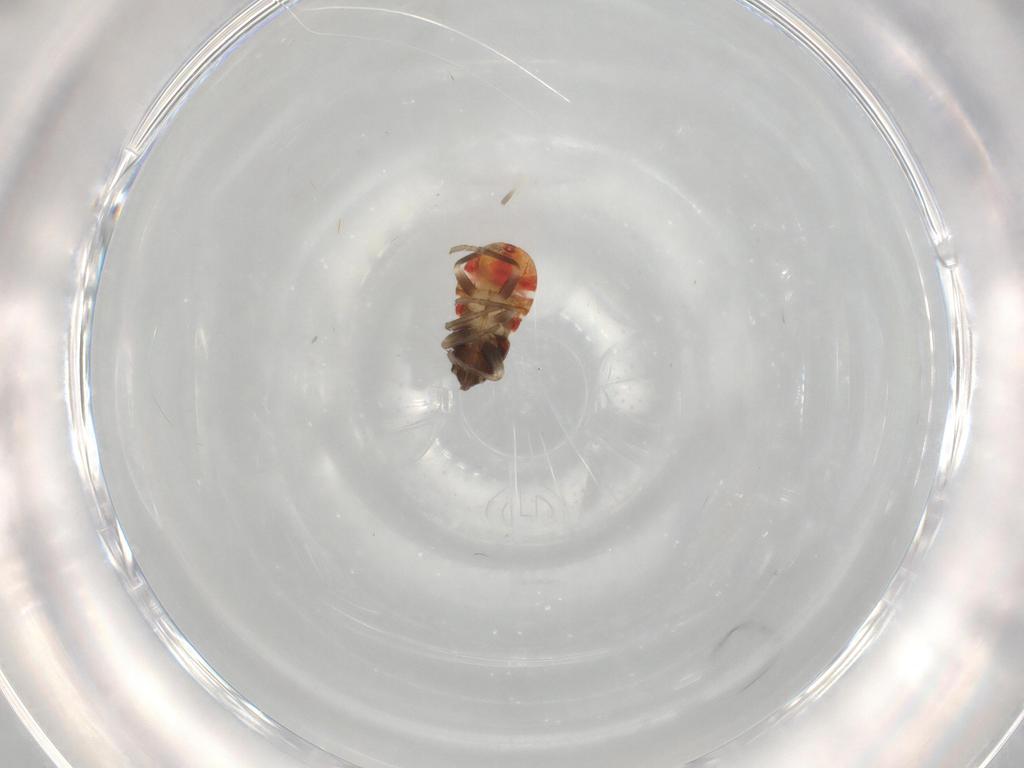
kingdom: Animalia
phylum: Arthropoda
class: Insecta
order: Hemiptera
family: Rhyparochromidae
